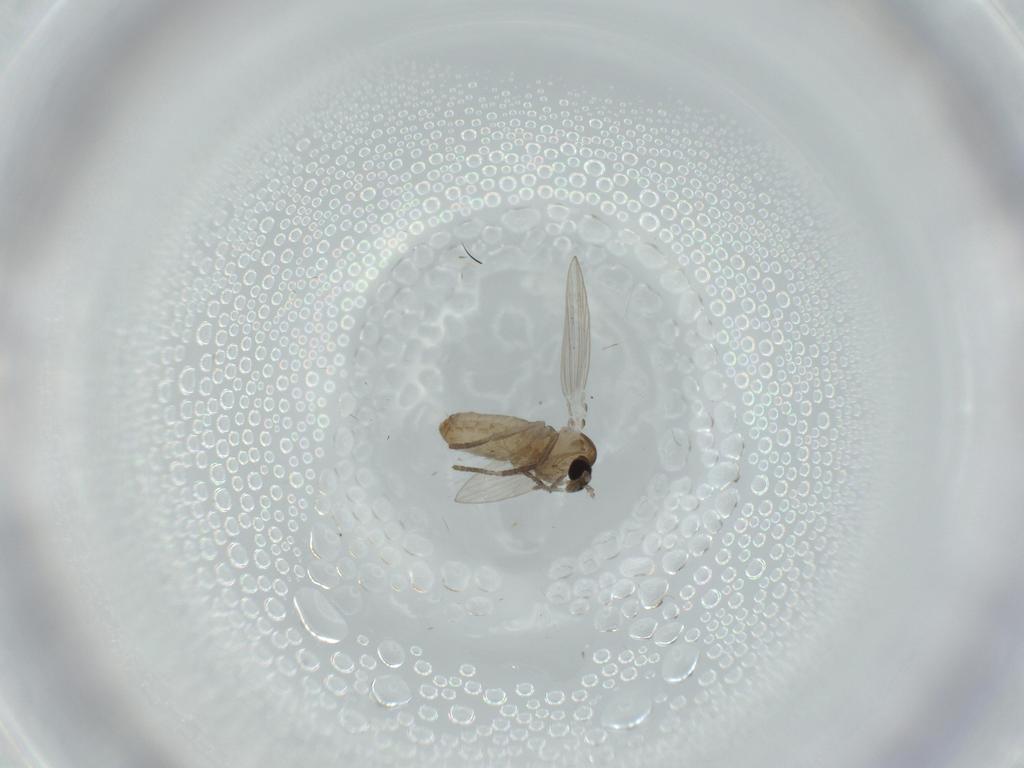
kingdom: Animalia
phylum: Arthropoda
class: Insecta
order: Diptera
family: Psychodidae
